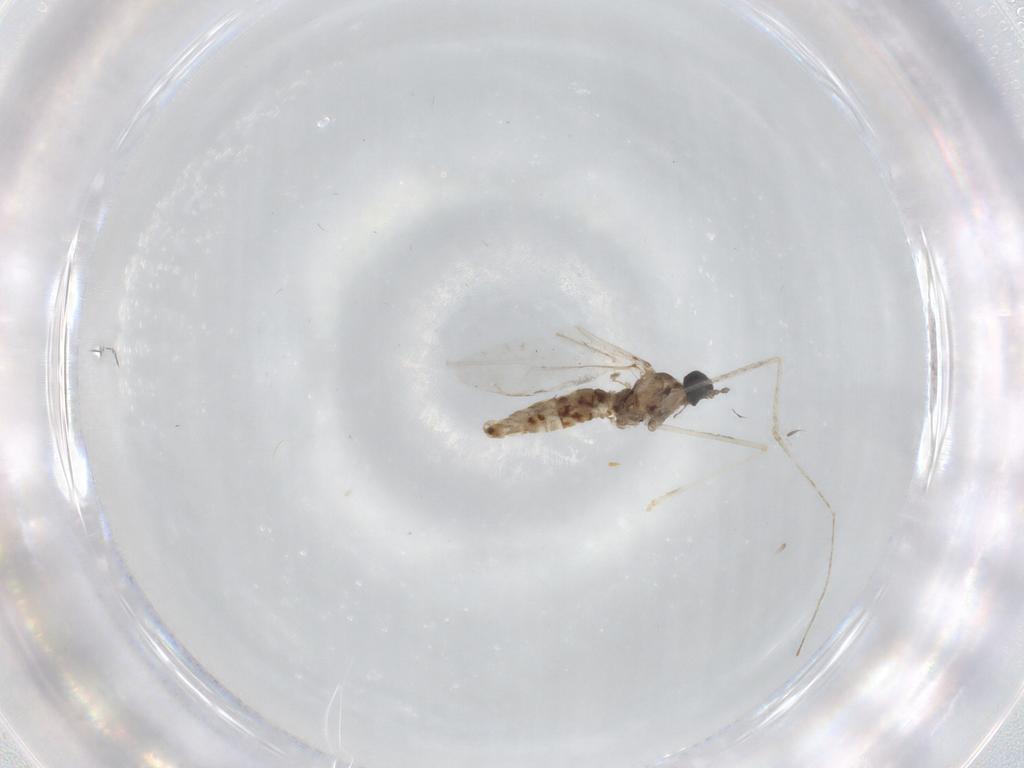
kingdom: Animalia
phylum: Arthropoda
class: Insecta
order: Diptera
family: Cecidomyiidae
